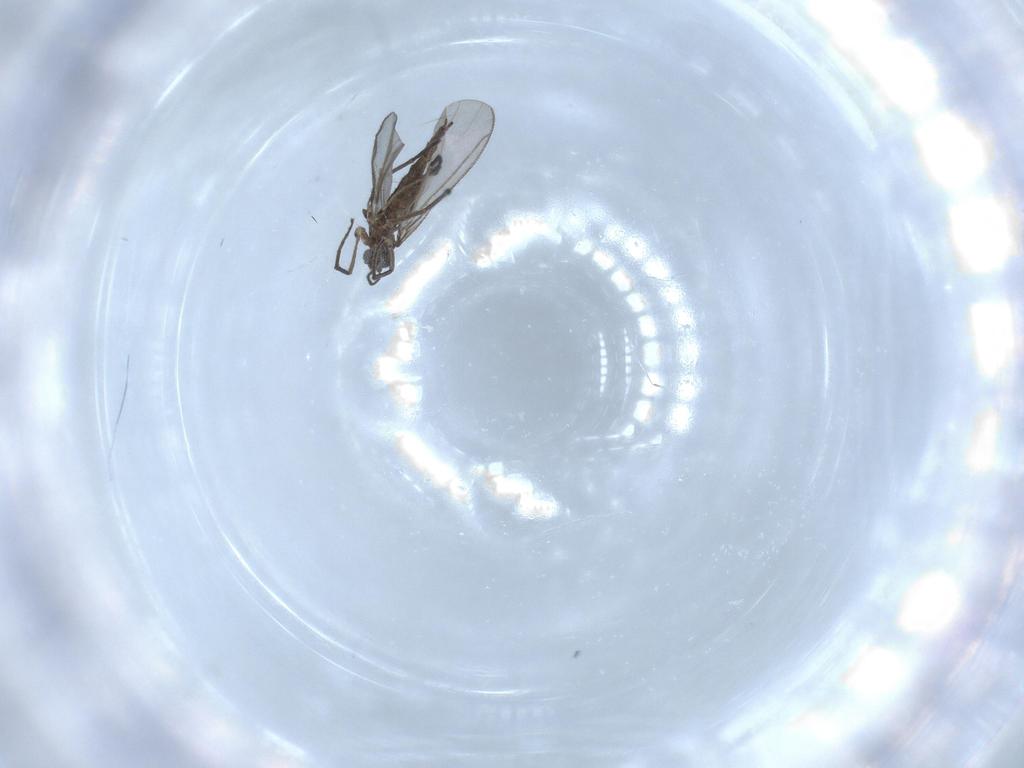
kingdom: Animalia
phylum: Arthropoda
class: Insecta
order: Diptera
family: Sciaridae
